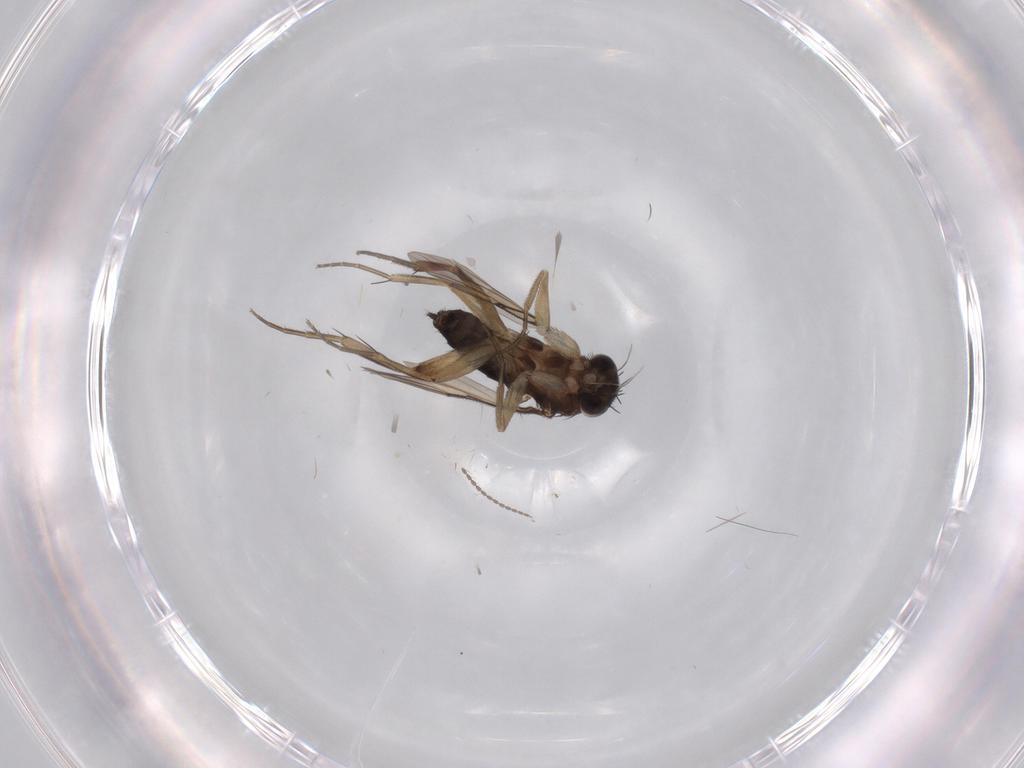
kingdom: Animalia
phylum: Arthropoda
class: Insecta
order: Diptera
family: Phoridae
